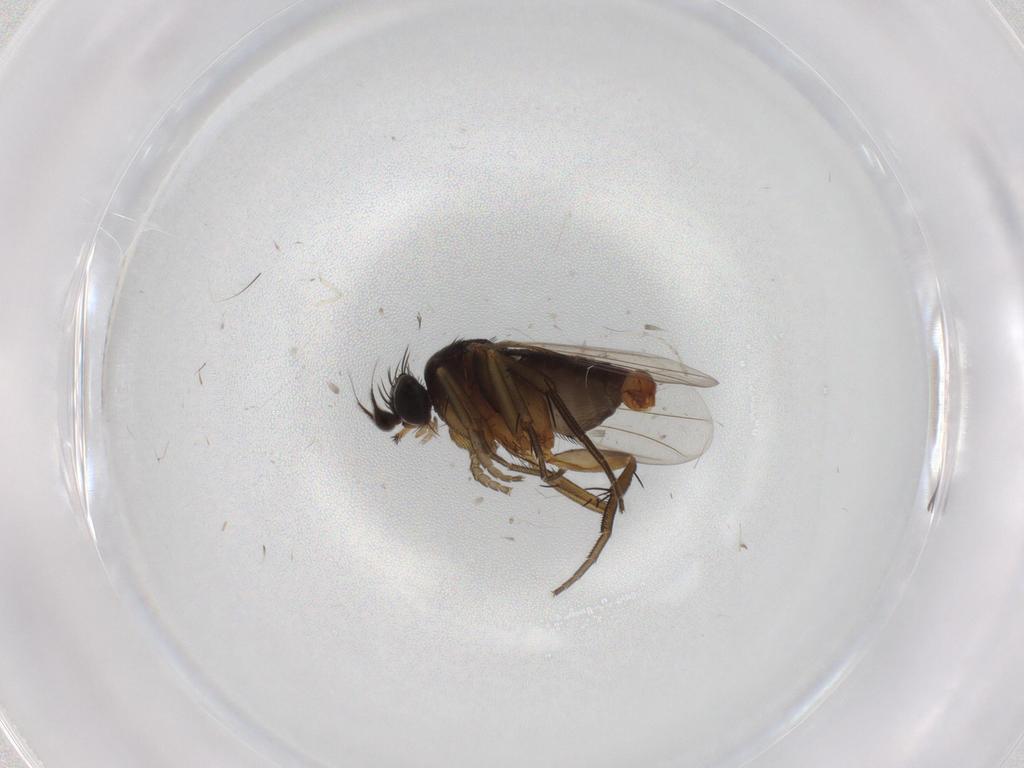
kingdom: Animalia
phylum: Arthropoda
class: Insecta
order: Diptera
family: Phoridae
